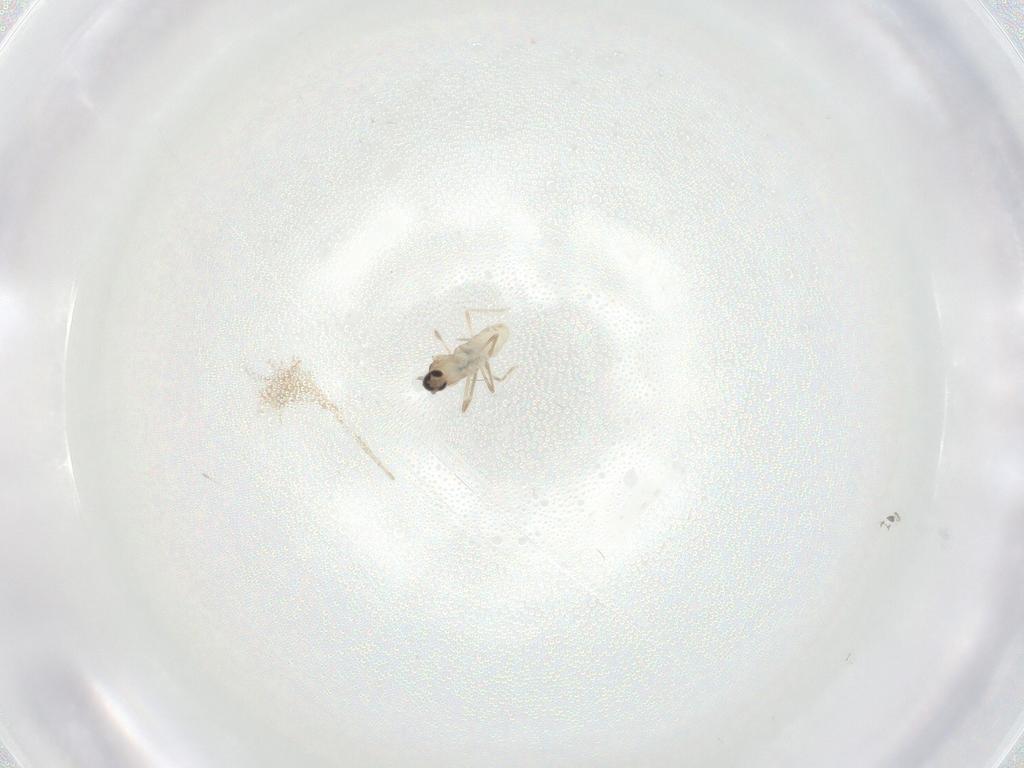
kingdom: Animalia
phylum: Arthropoda
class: Insecta
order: Diptera
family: Cecidomyiidae
